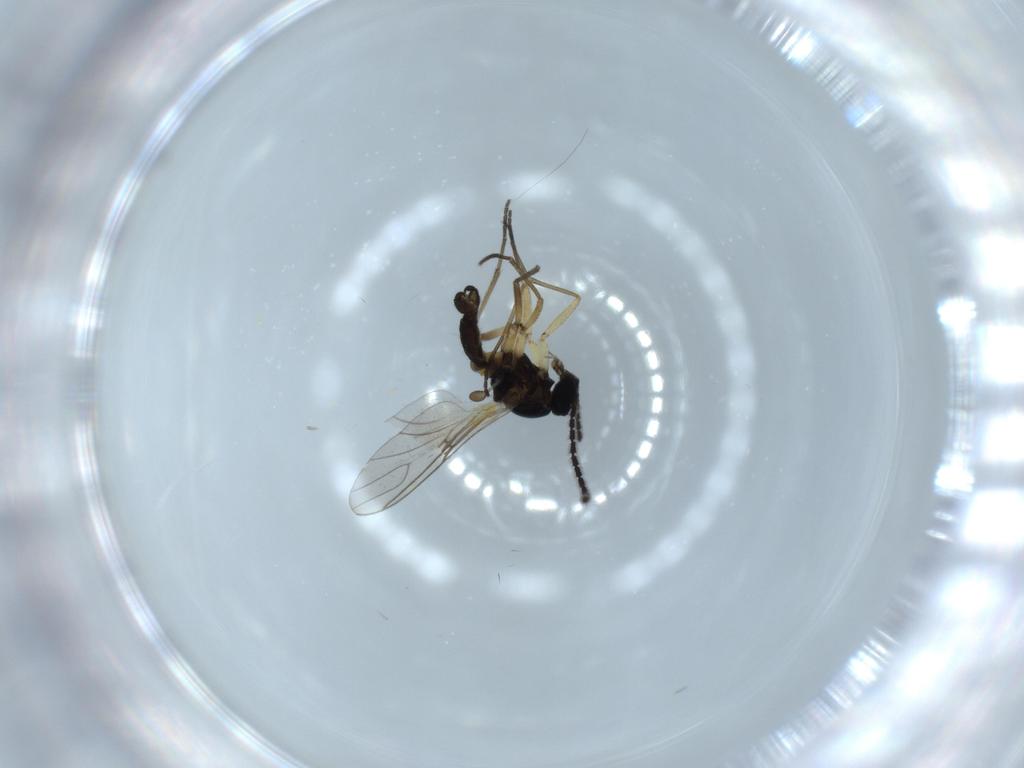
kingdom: Animalia
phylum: Arthropoda
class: Insecta
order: Diptera
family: Sciaridae
